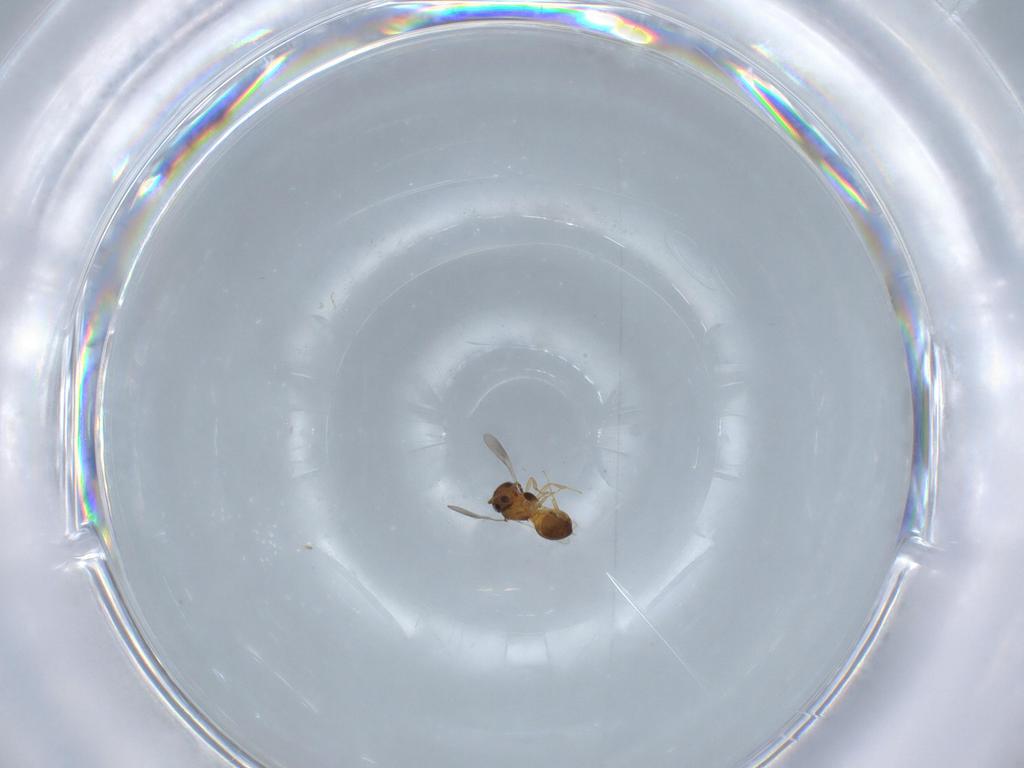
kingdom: Animalia
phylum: Arthropoda
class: Insecta
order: Hymenoptera
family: Scelionidae
